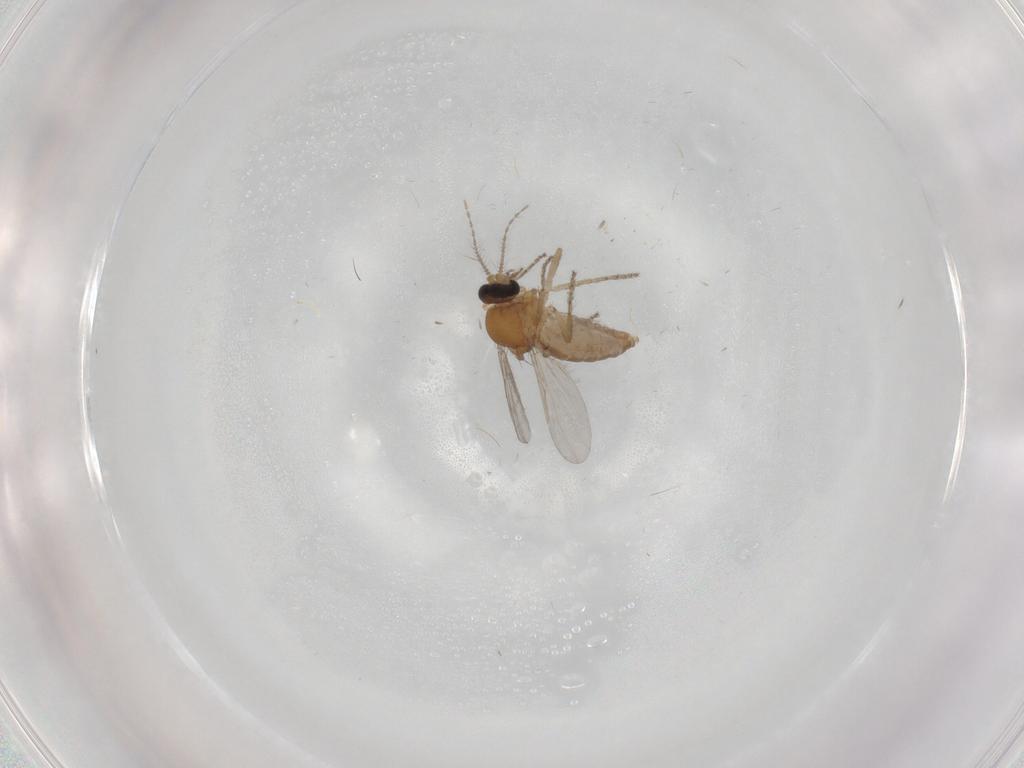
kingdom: Animalia
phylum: Arthropoda
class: Insecta
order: Diptera
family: Ceratopogonidae
